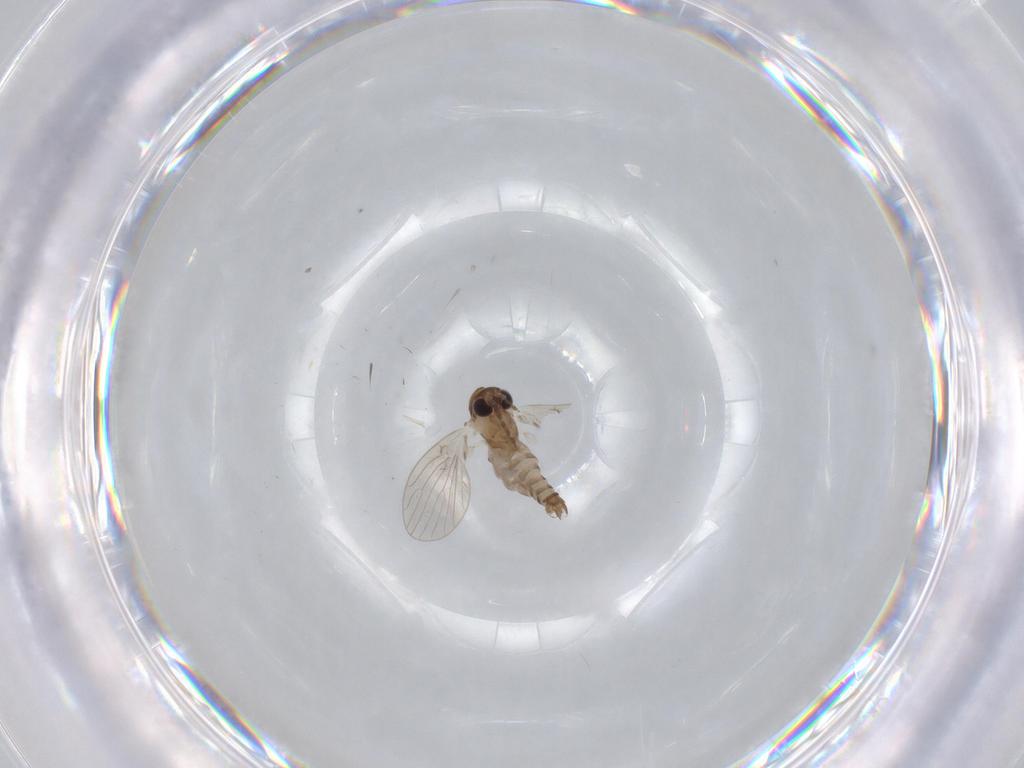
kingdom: Animalia
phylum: Arthropoda
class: Insecta
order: Diptera
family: Psychodidae
